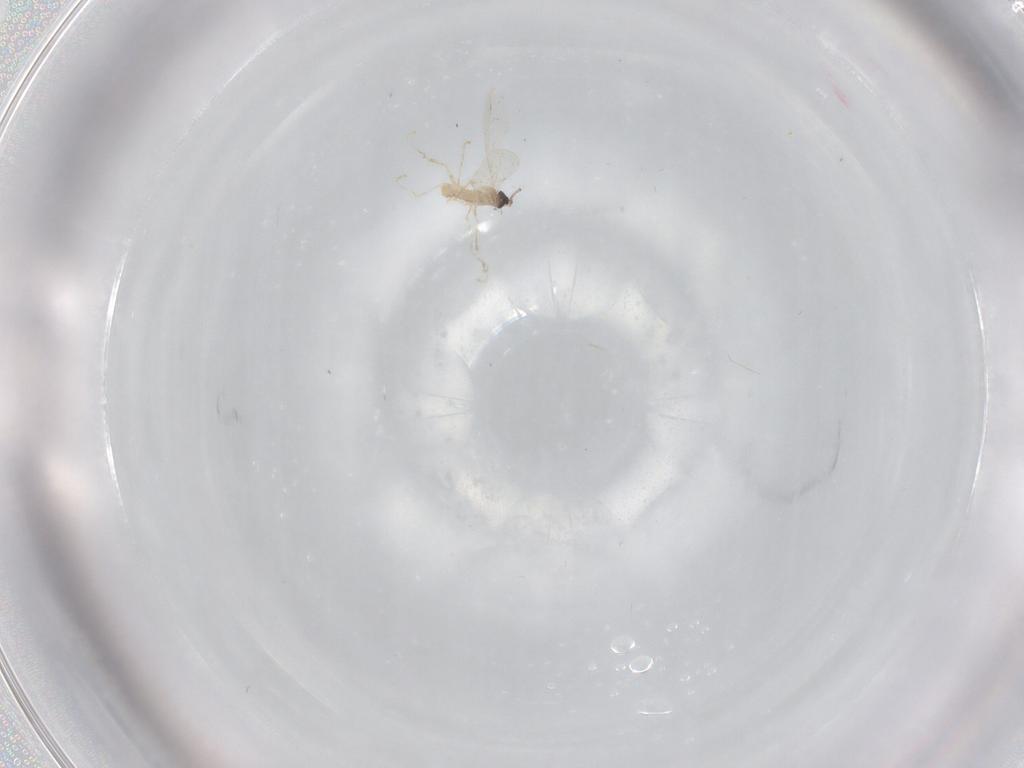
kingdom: Animalia
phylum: Arthropoda
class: Insecta
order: Diptera
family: Cecidomyiidae
